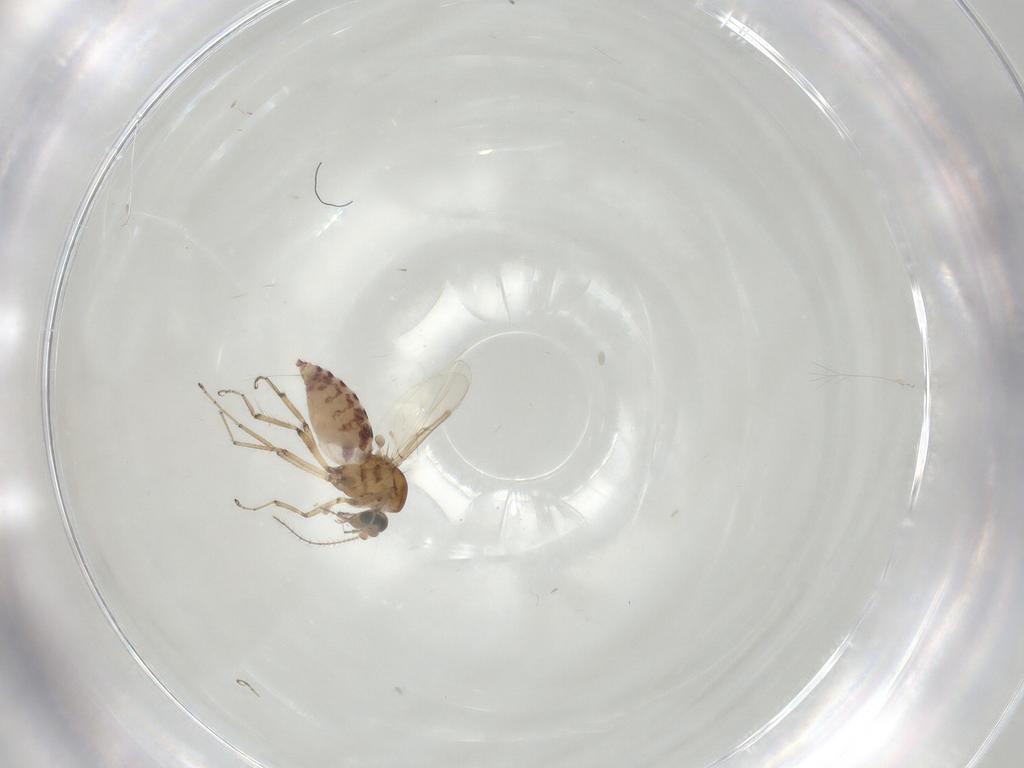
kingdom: Animalia
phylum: Arthropoda
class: Insecta
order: Diptera
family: Ceratopogonidae
